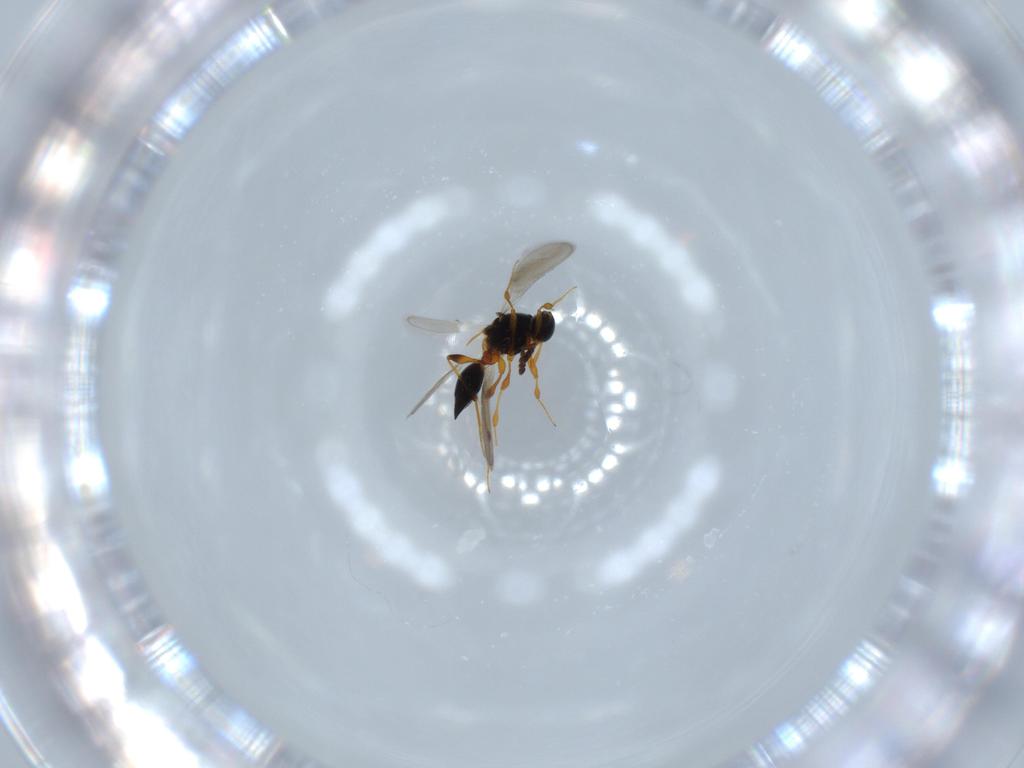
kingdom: Animalia
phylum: Arthropoda
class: Insecta
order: Hymenoptera
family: Platygastridae
